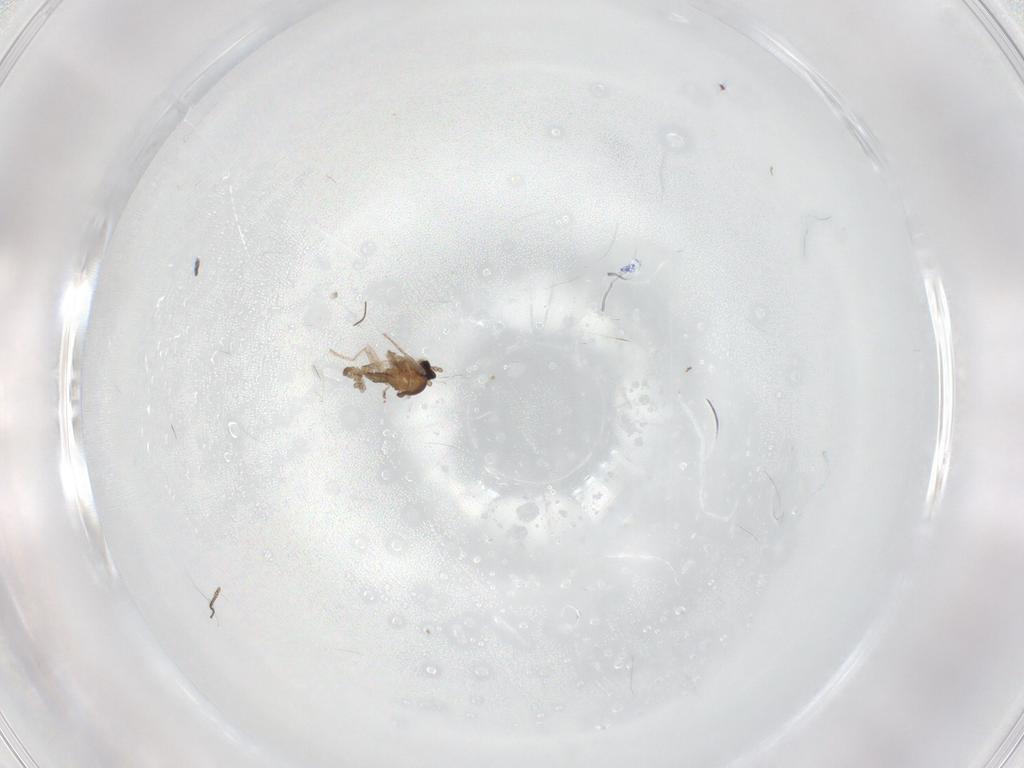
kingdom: Animalia
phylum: Arthropoda
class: Insecta
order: Diptera
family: Cecidomyiidae
